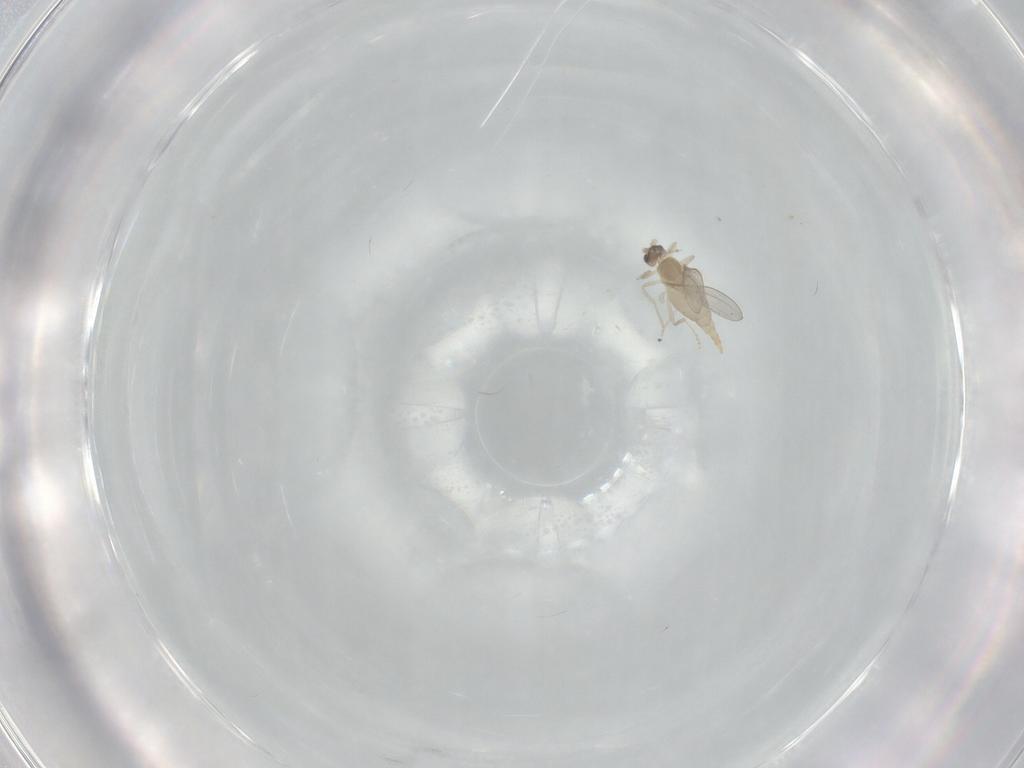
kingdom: Animalia
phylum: Arthropoda
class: Insecta
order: Diptera
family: Cecidomyiidae
